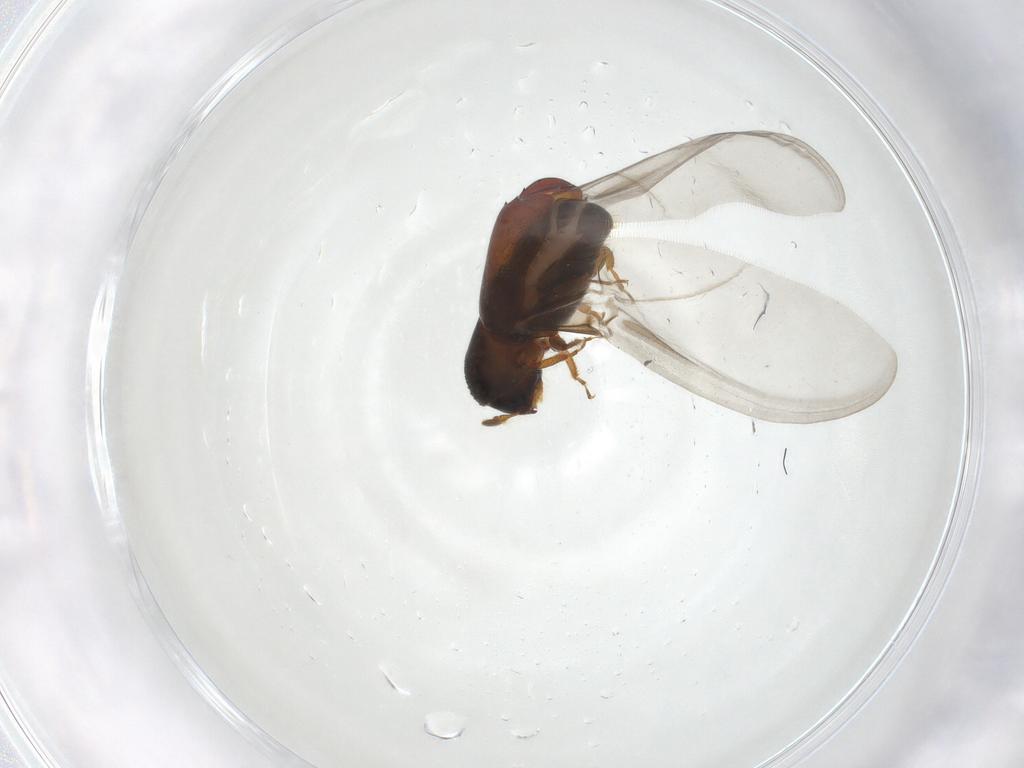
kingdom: Animalia
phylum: Arthropoda
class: Insecta
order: Coleoptera
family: Curculionidae
